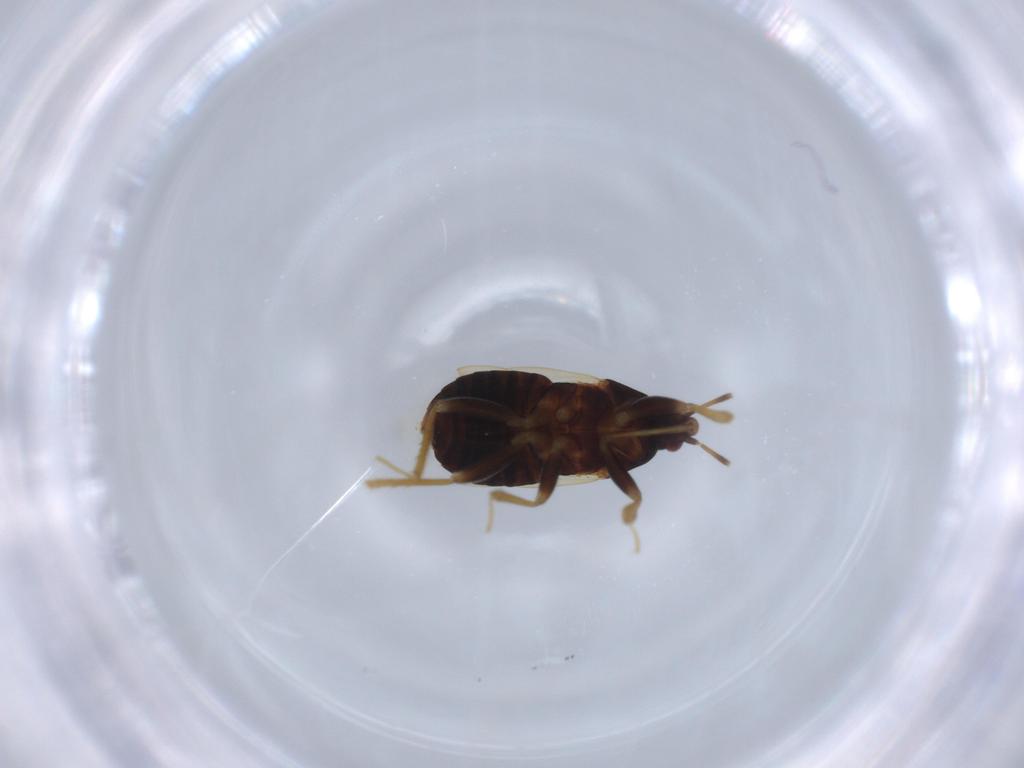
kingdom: Animalia
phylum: Arthropoda
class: Insecta
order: Hemiptera
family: Anthocoridae
